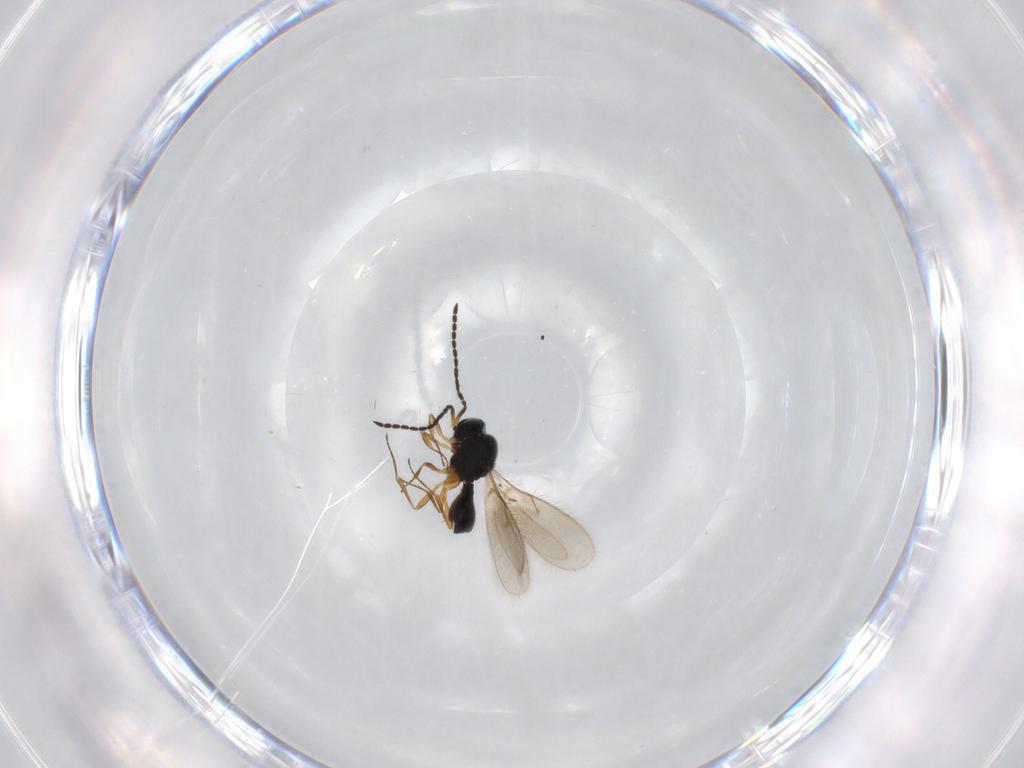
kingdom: Animalia
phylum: Arthropoda
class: Insecta
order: Hymenoptera
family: Scelionidae
